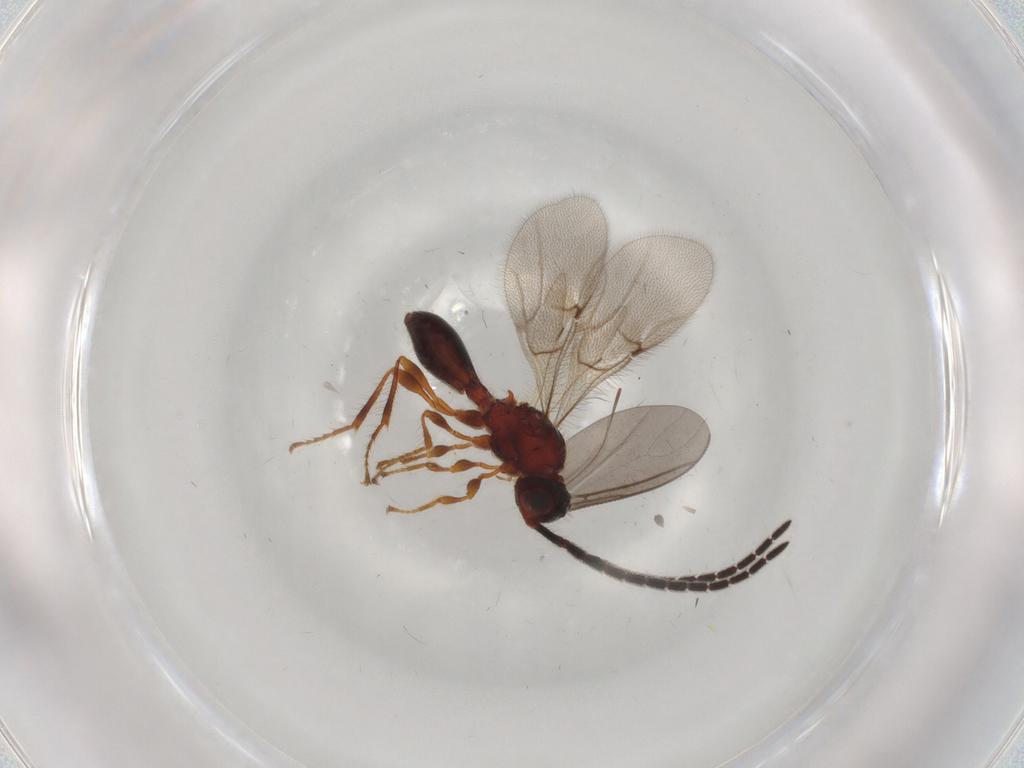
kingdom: Animalia
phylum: Arthropoda
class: Insecta
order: Hymenoptera
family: Diapriidae
